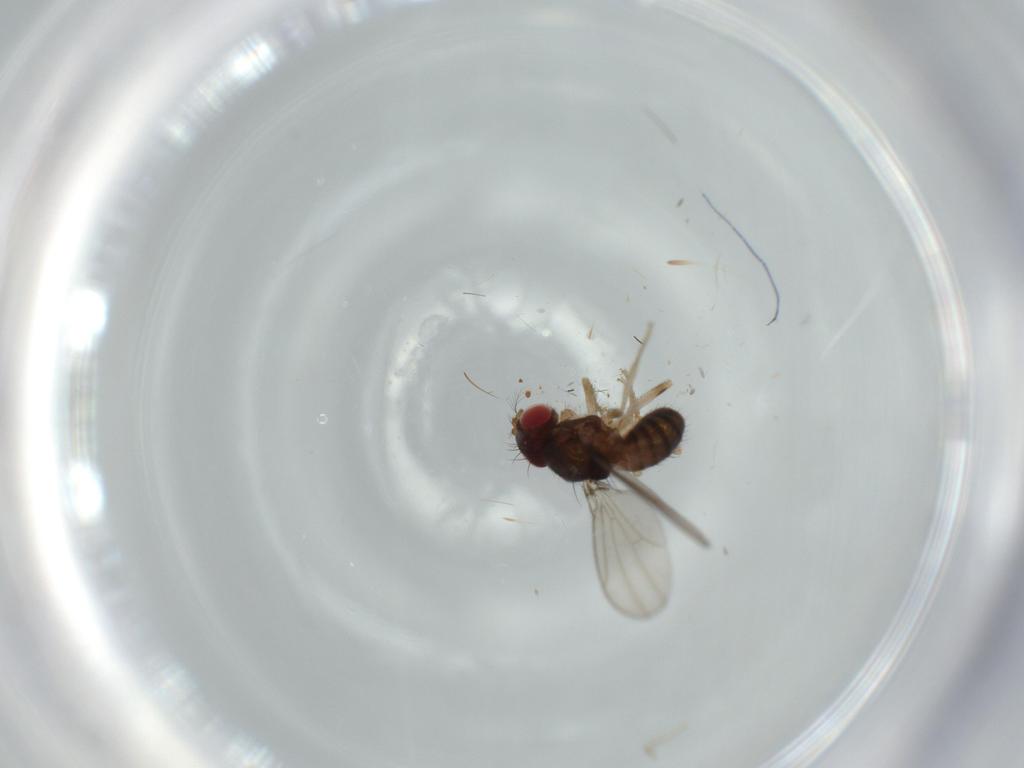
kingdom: Animalia
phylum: Arthropoda
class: Insecta
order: Diptera
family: Drosophilidae
